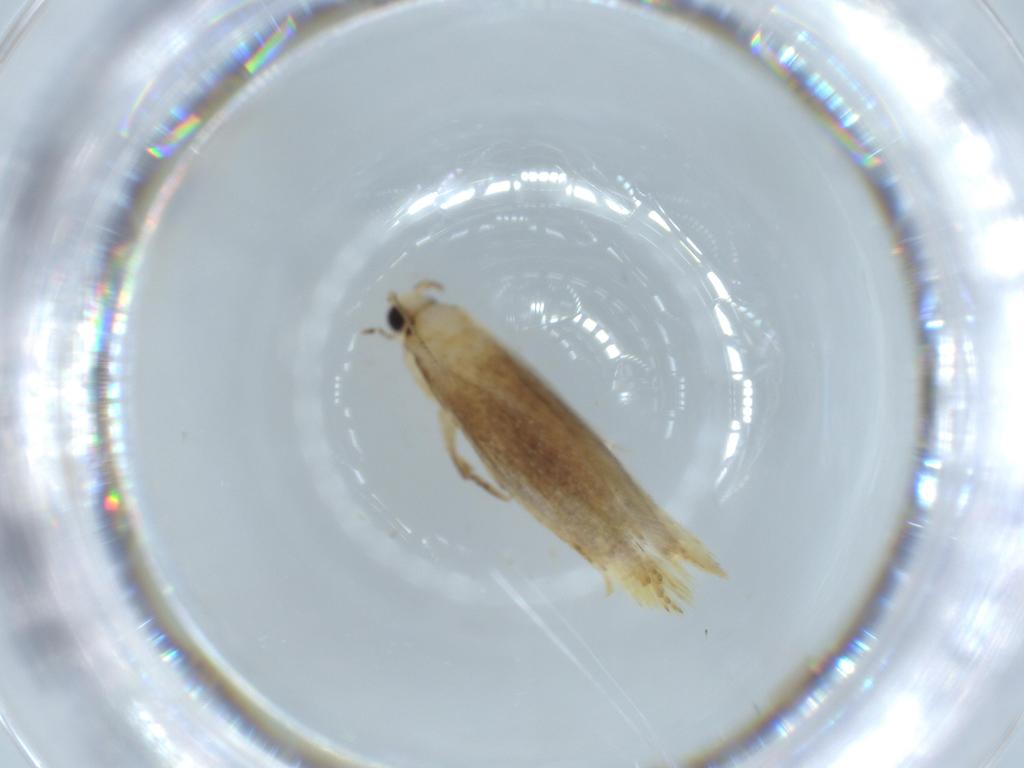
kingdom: Animalia
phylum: Arthropoda
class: Insecta
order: Lepidoptera
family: Tineidae
